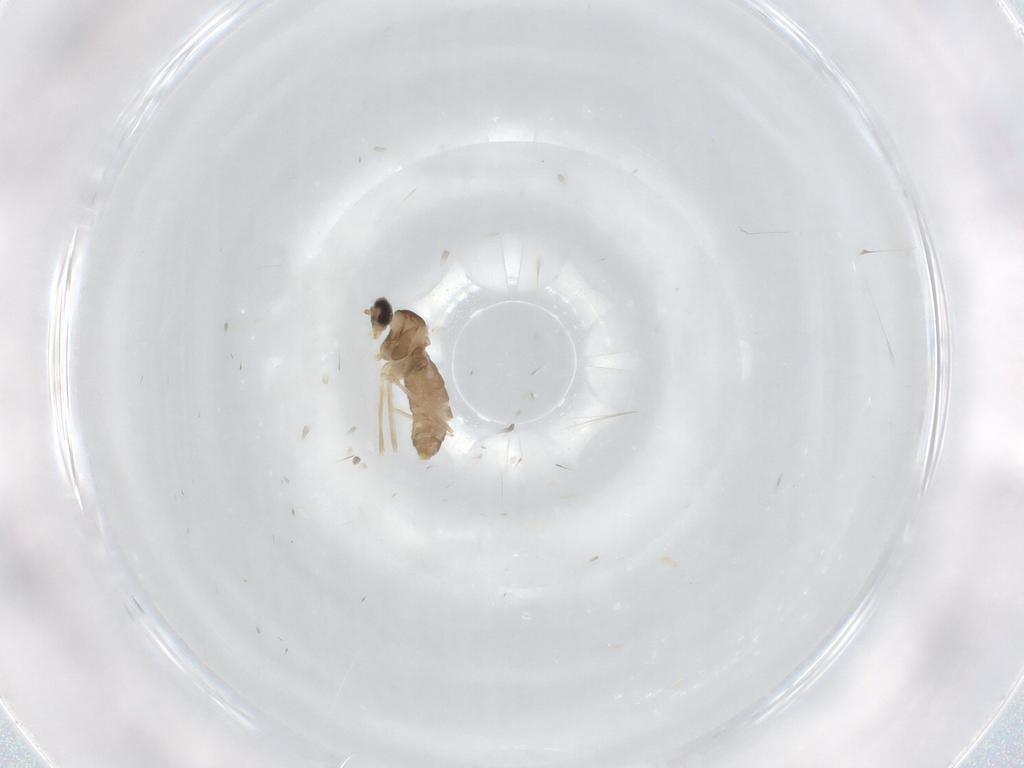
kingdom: Animalia
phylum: Arthropoda
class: Insecta
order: Diptera
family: Cecidomyiidae
